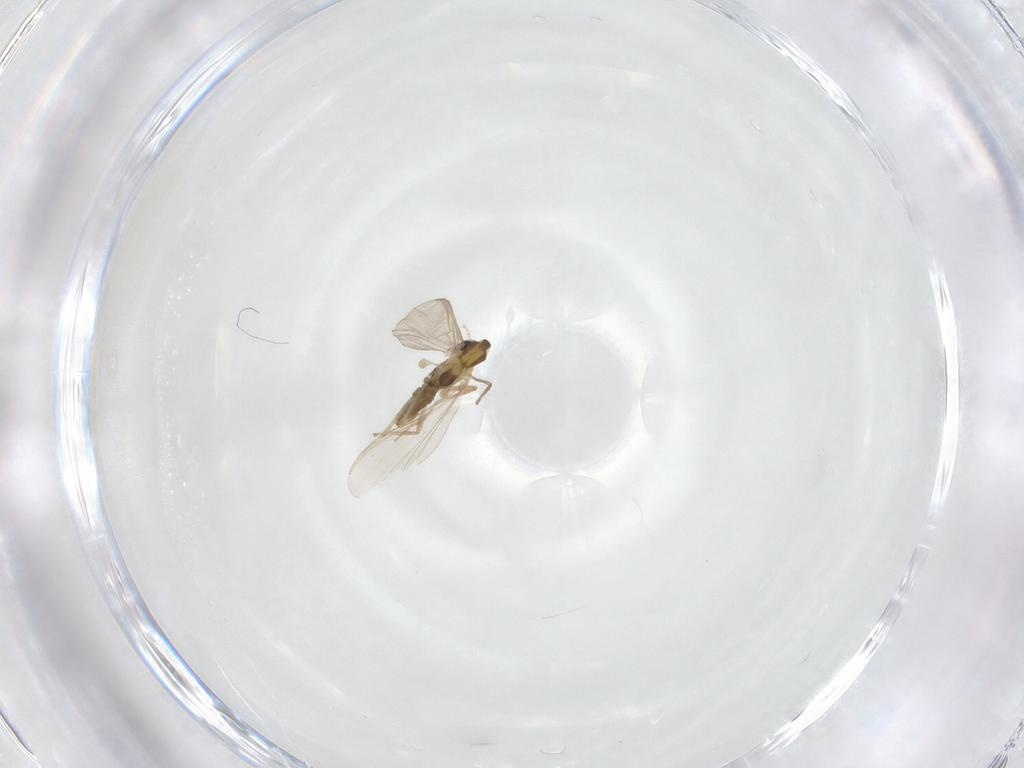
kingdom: Animalia
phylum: Arthropoda
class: Insecta
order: Diptera
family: Chironomidae
